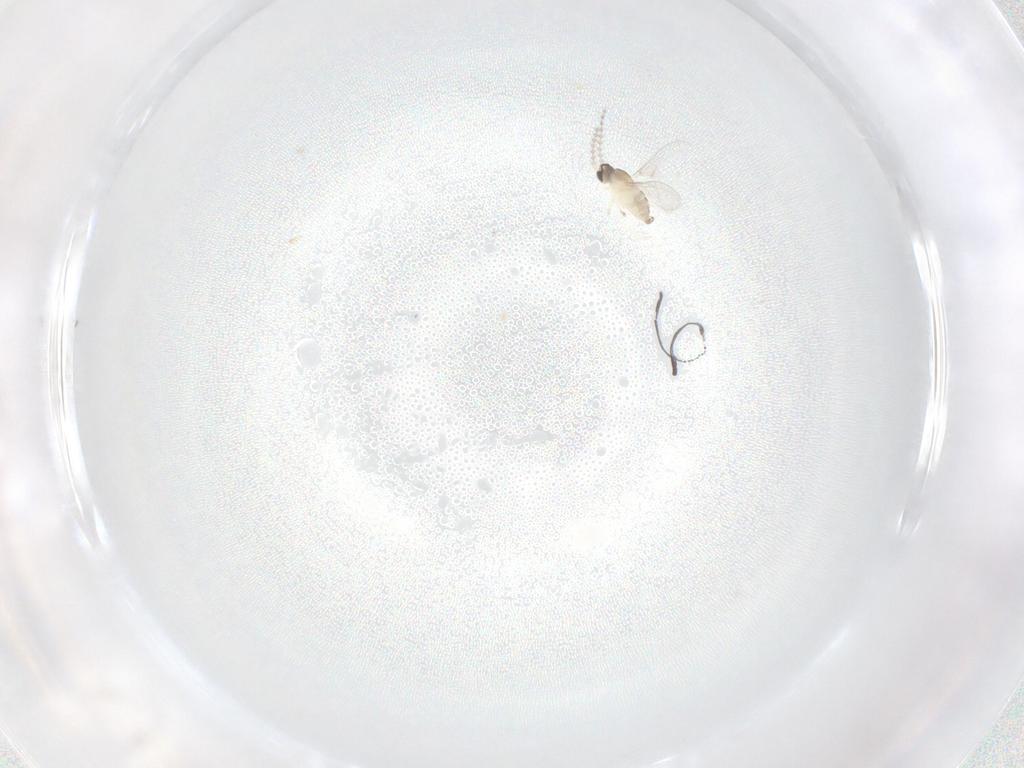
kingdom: Animalia
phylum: Arthropoda
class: Insecta
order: Diptera
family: Cecidomyiidae
